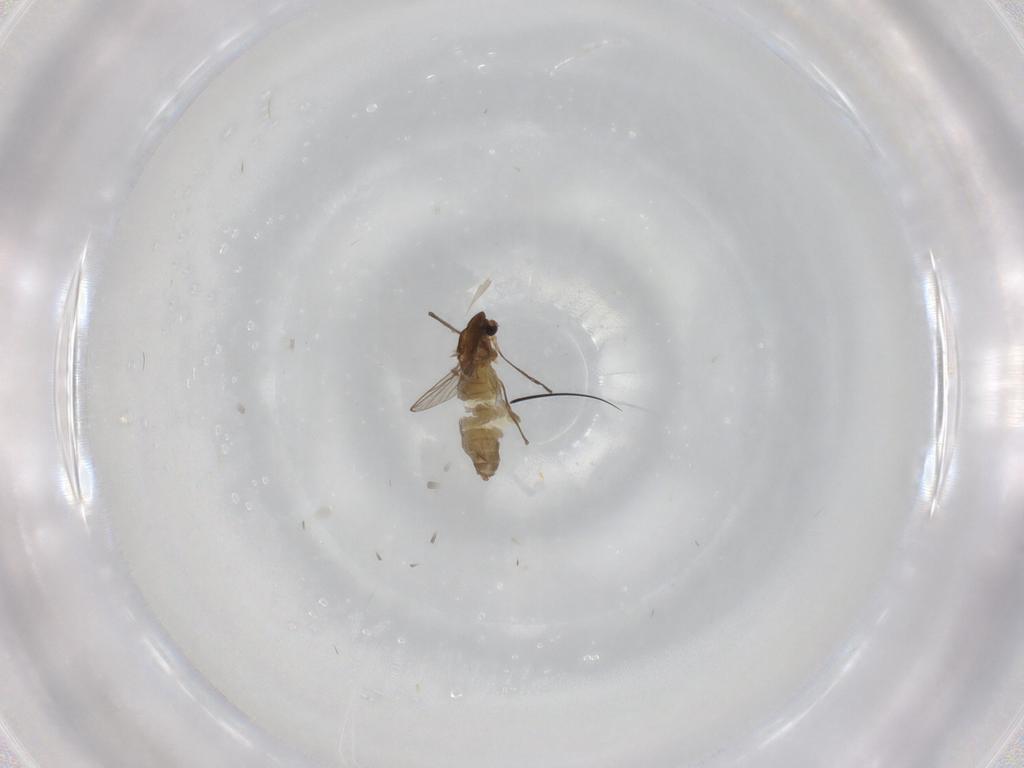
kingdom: Animalia
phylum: Arthropoda
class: Insecta
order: Diptera
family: Chironomidae
